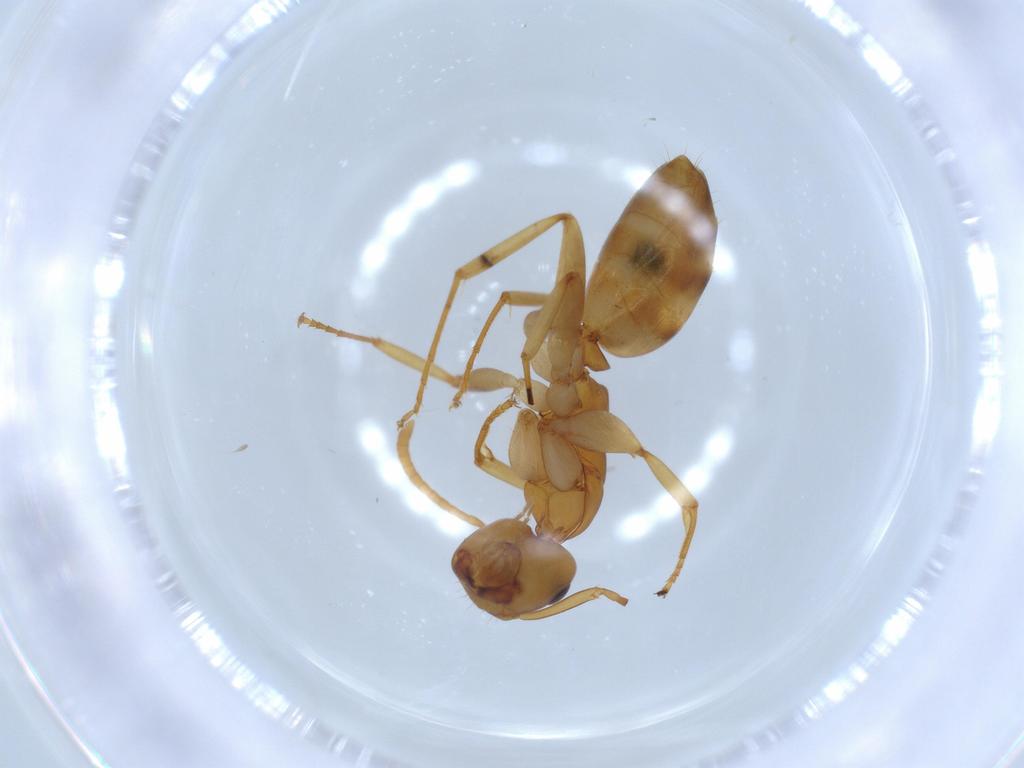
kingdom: Animalia
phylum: Arthropoda
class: Insecta
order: Hymenoptera
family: Formicidae
